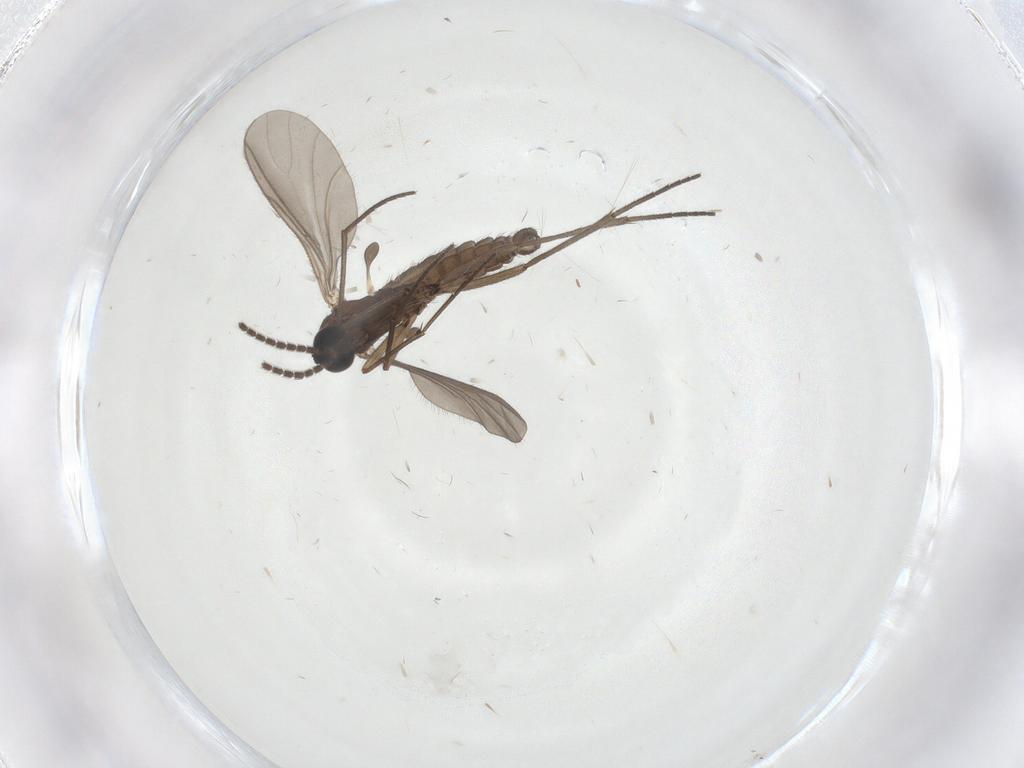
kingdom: Animalia
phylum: Arthropoda
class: Insecta
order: Diptera
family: Sciaridae
